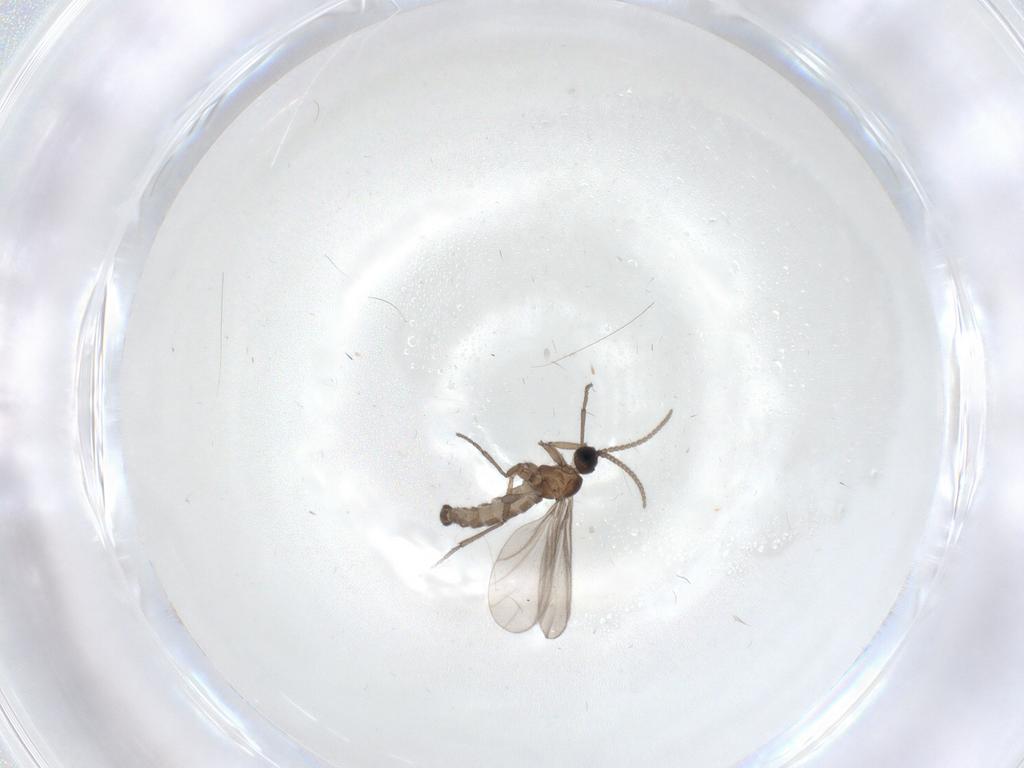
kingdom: Animalia
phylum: Arthropoda
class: Insecta
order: Diptera
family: Sciaridae
